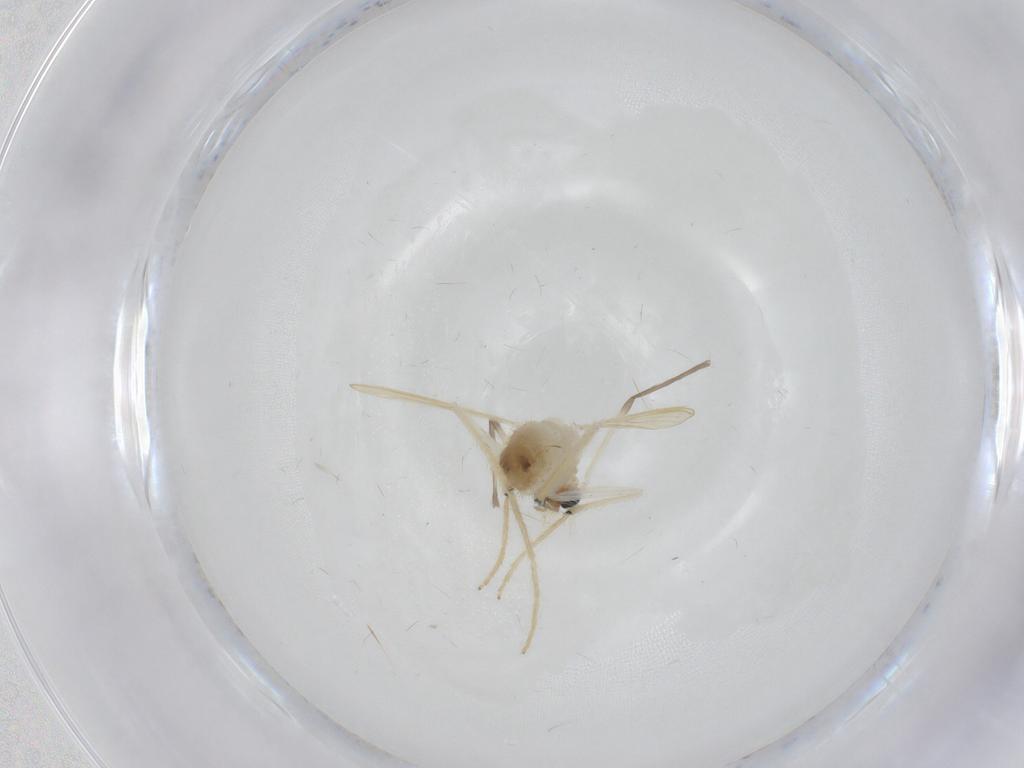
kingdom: Animalia
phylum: Arthropoda
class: Insecta
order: Diptera
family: Chironomidae
